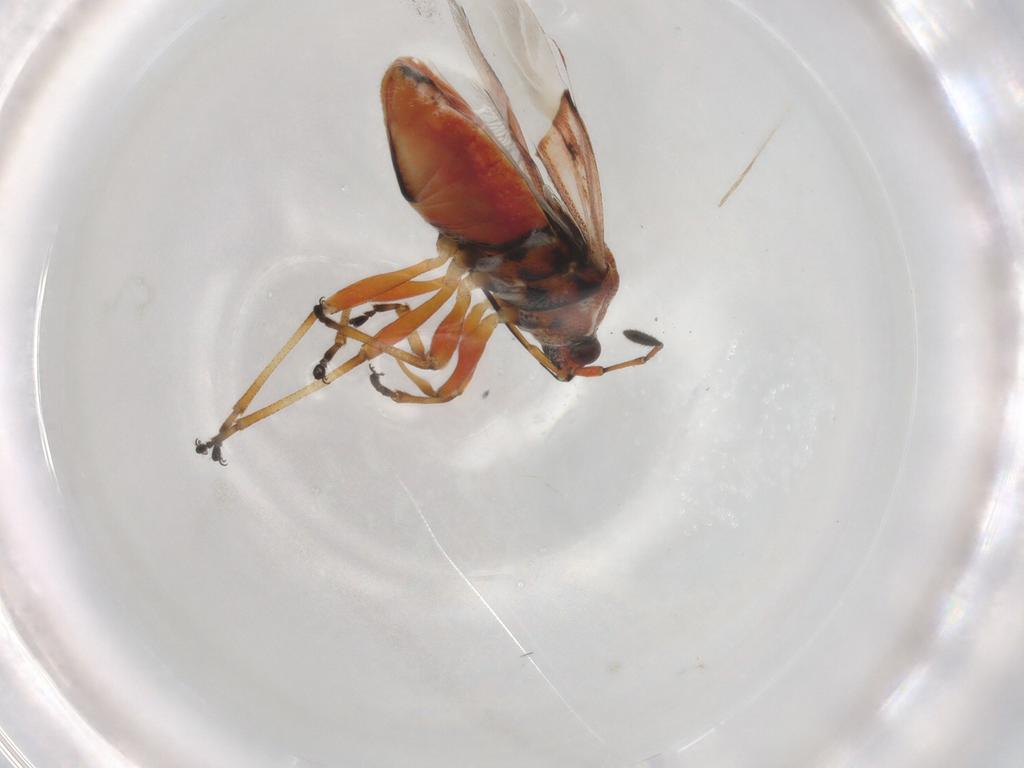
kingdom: Animalia
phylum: Arthropoda
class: Insecta
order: Hemiptera
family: Lygaeidae
